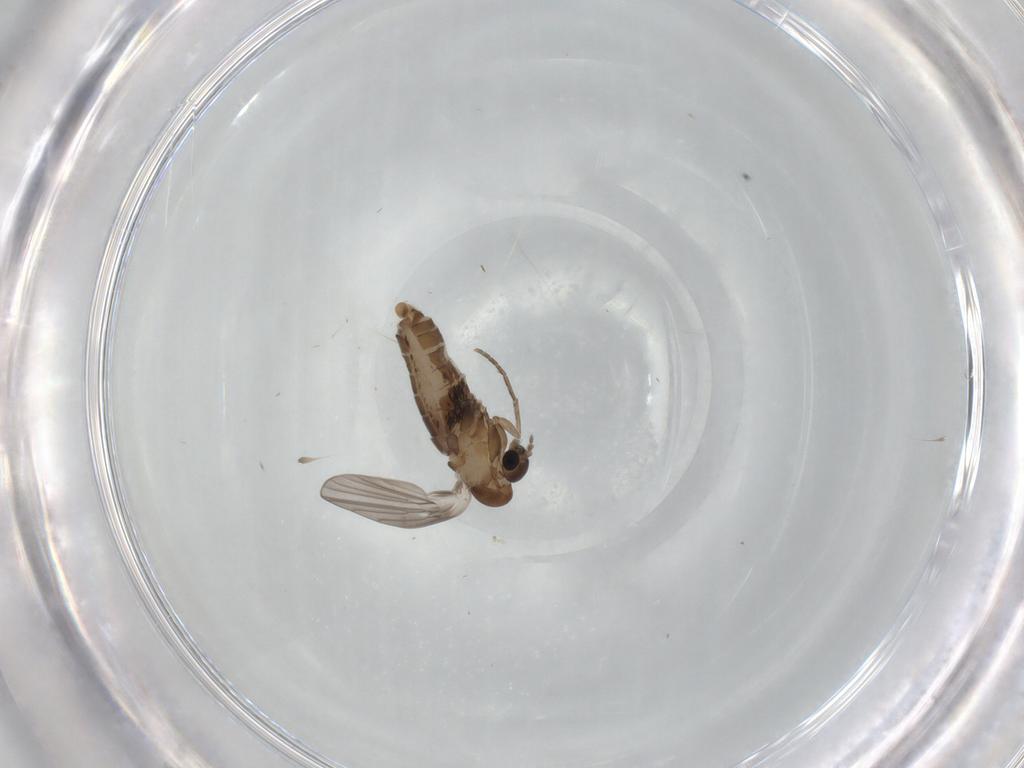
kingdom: Animalia
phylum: Arthropoda
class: Insecta
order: Diptera
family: Psychodidae
